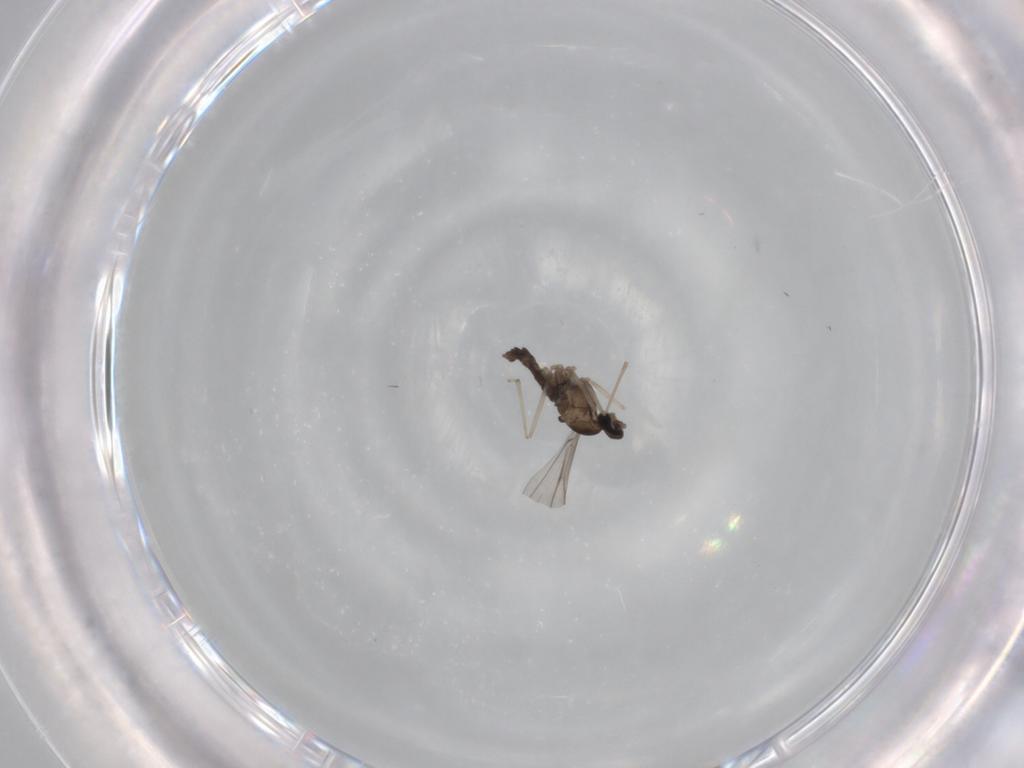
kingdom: Animalia
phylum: Arthropoda
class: Insecta
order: Diptera
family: Cecidomyiidae
